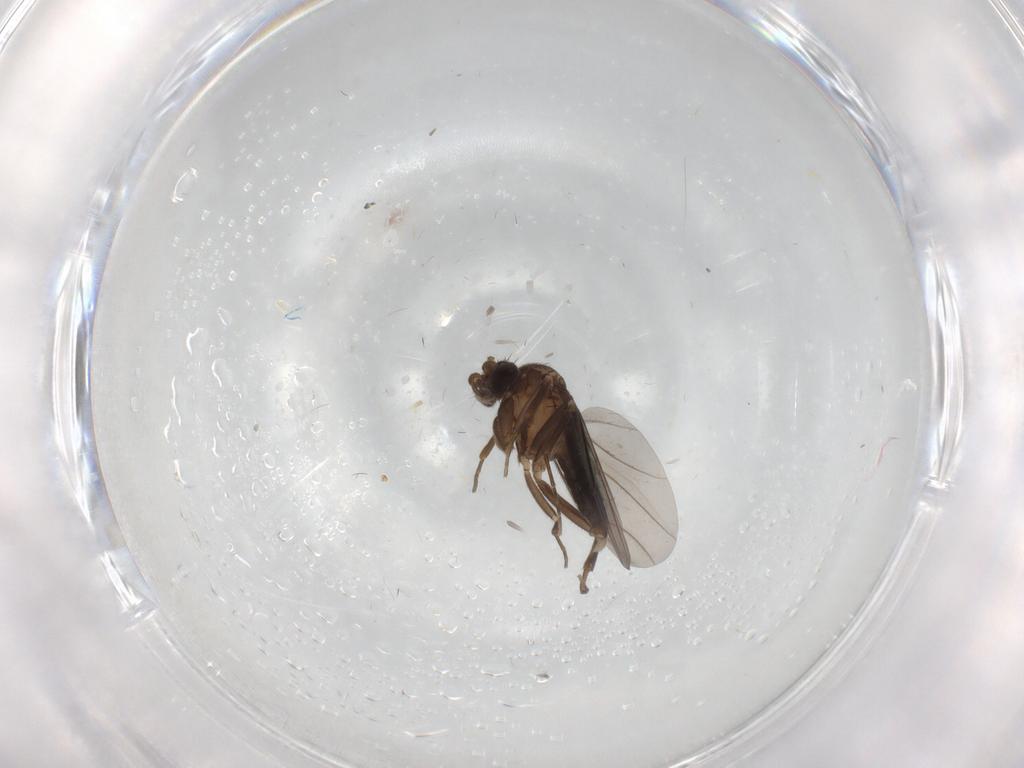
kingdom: Animalia
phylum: Arthropoda
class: Insecta
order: Diptera
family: Phoridae
